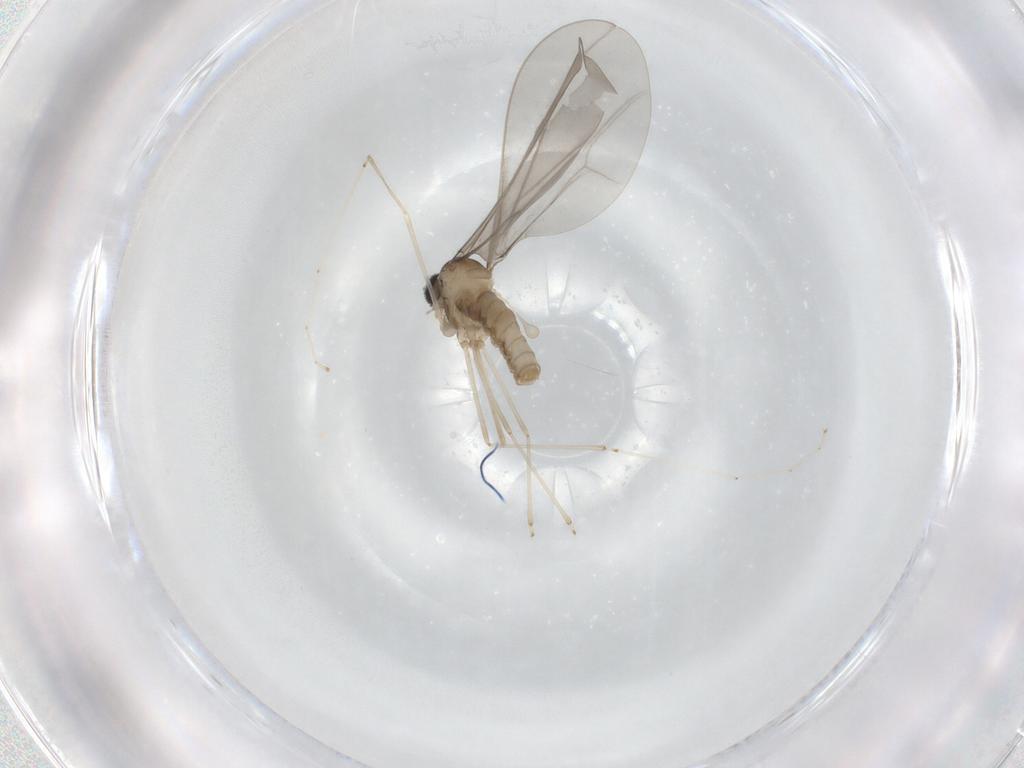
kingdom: Animalia
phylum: Arthropoda
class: Insecta
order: Diptera
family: Cecidomyiidae
